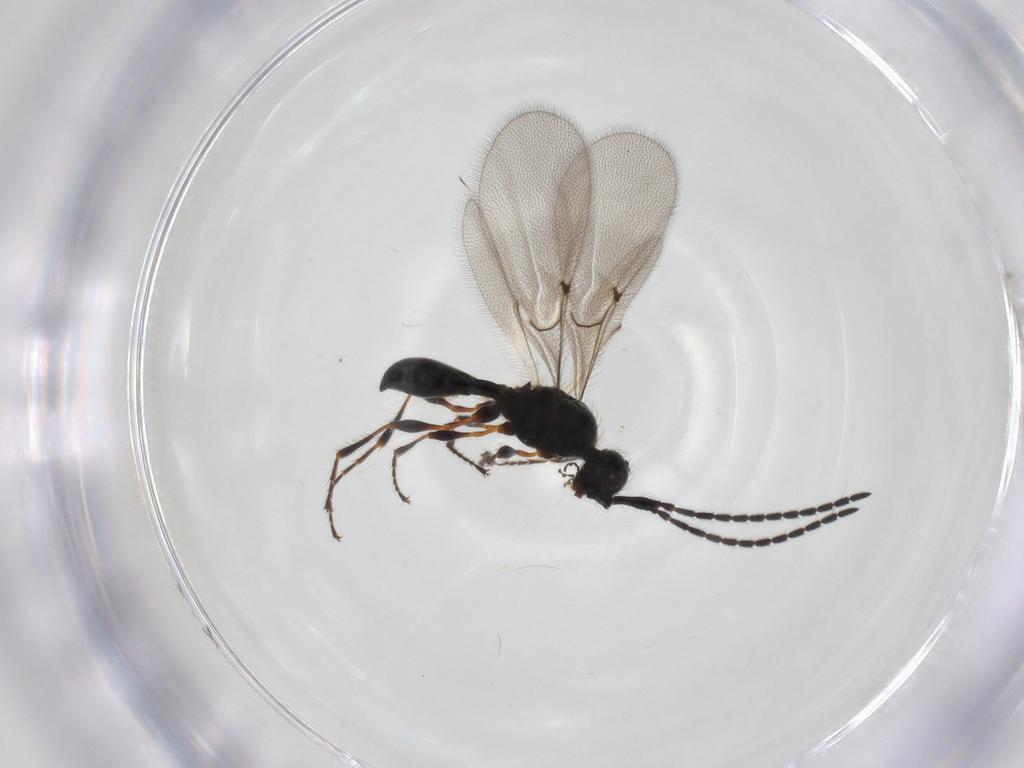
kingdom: Animalia
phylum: Arthropoda
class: Insecta
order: Hymenoptera
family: Diapriidae
